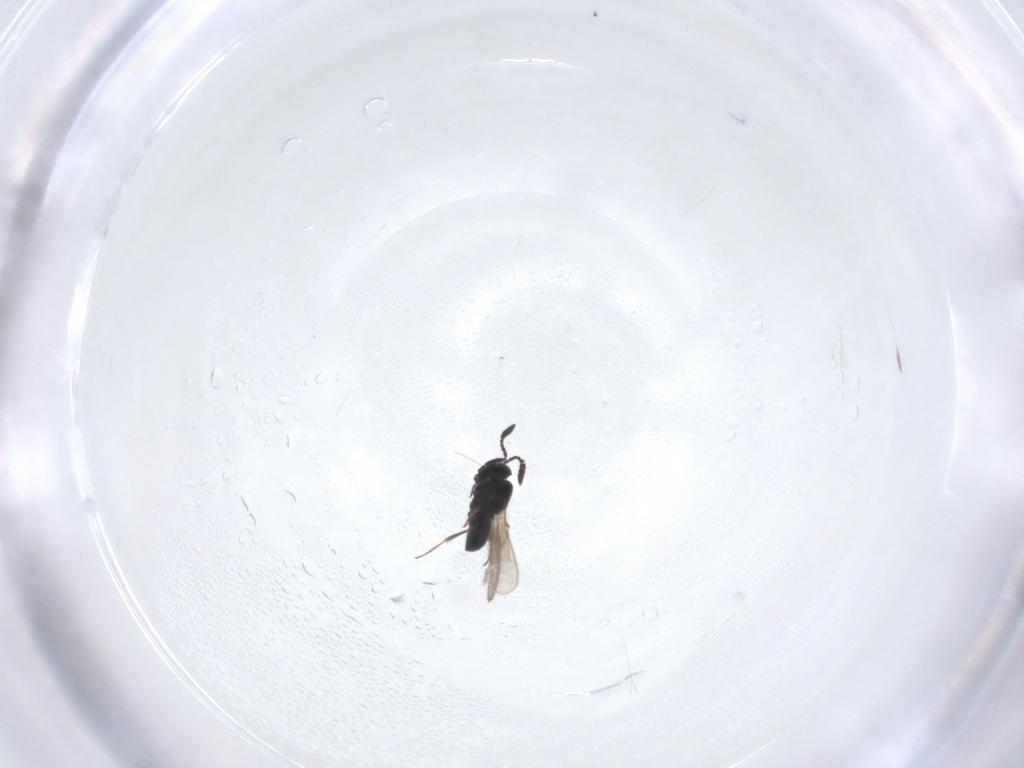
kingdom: Animalia
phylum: Arthropoda
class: Insecta
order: Hymenoptera
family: Scelionidae
